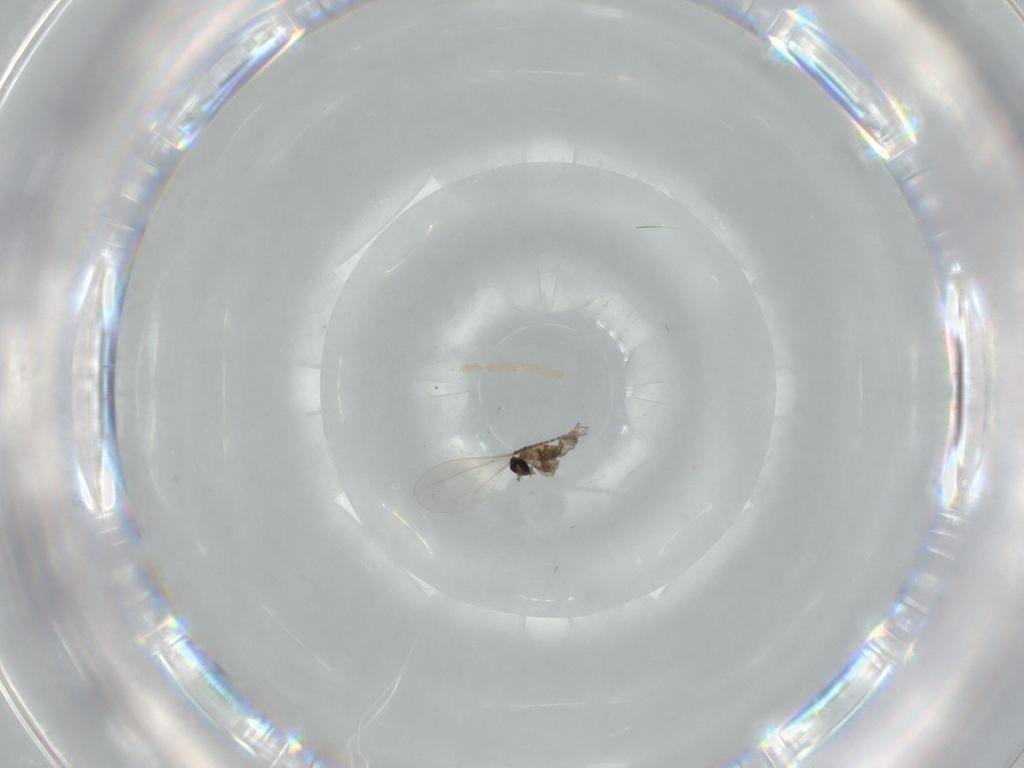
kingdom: Animalia
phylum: Arthropoda
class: Insecta
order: Diptera
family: Sciaridae
